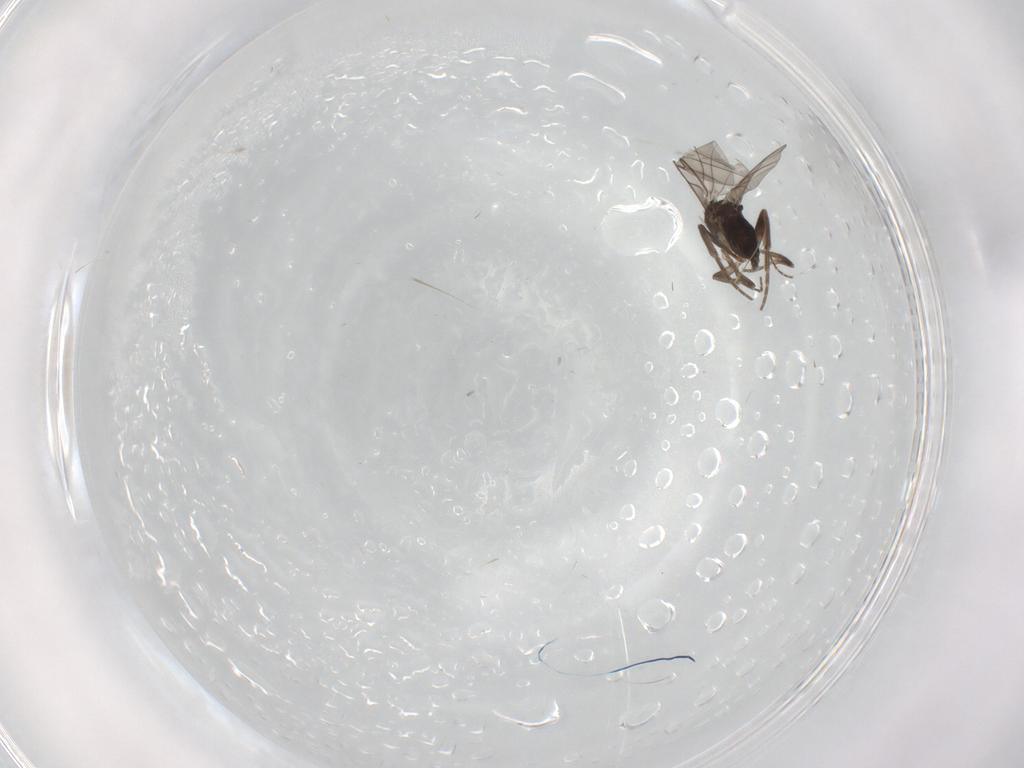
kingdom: Animalia
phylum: Arthropoda
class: Insecta
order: Diptera
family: Phoridae
